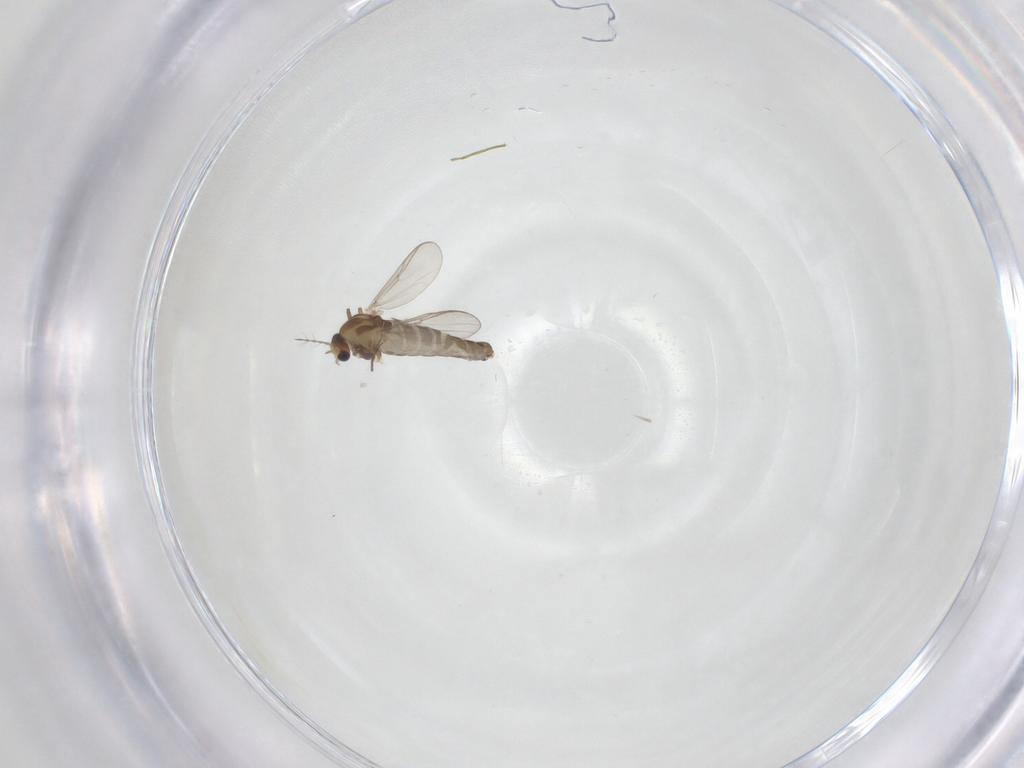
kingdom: Animalia
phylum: Arthropoda
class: Insecta
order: Diptera
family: Chironomidae
